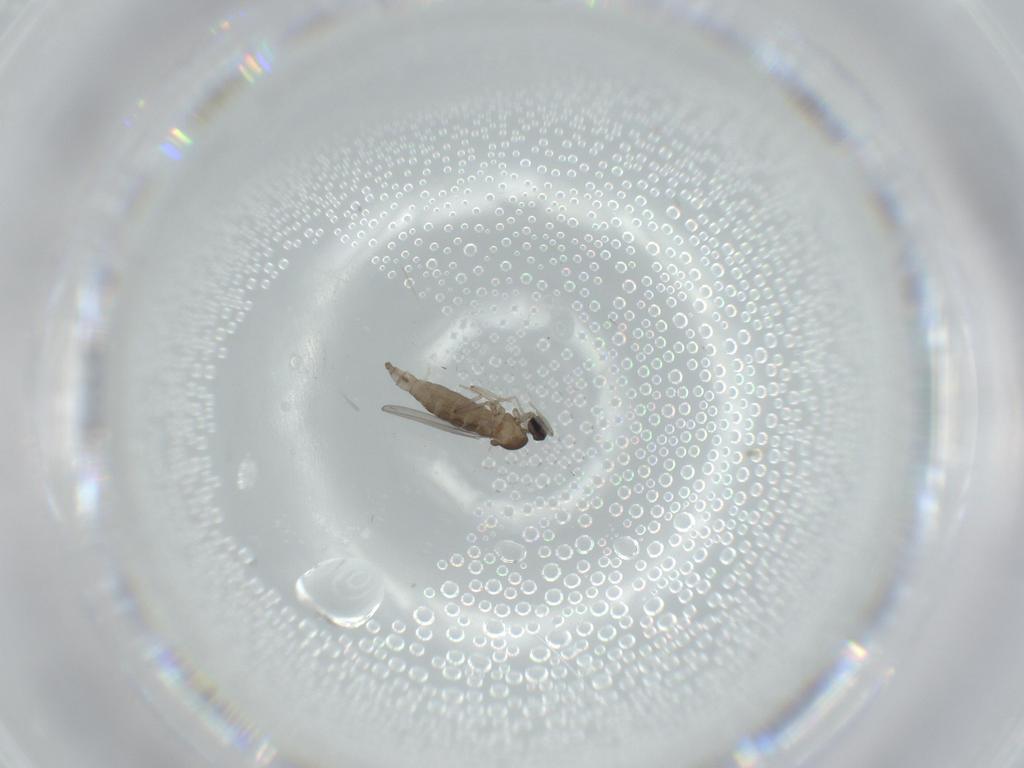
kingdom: Animalia
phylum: Arthropoda
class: Insecta
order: Diptera
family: Cecidomyiidae
